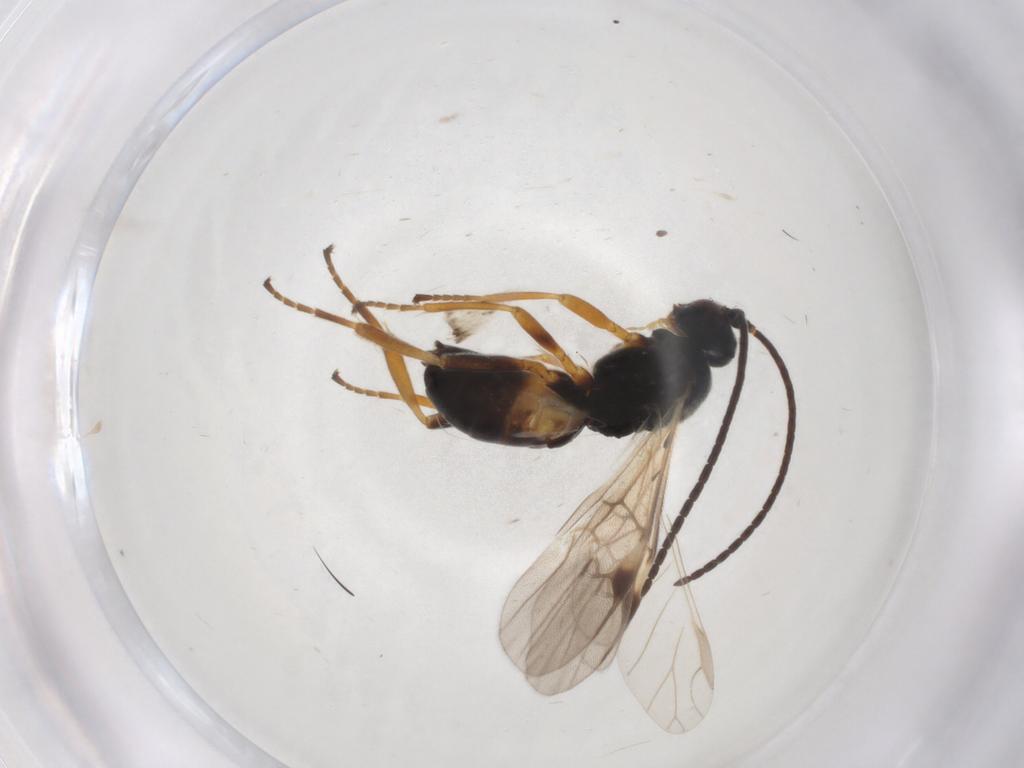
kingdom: Animalia
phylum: Arthropoda
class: Insecta
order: Hymenoptera
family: Braconidae
